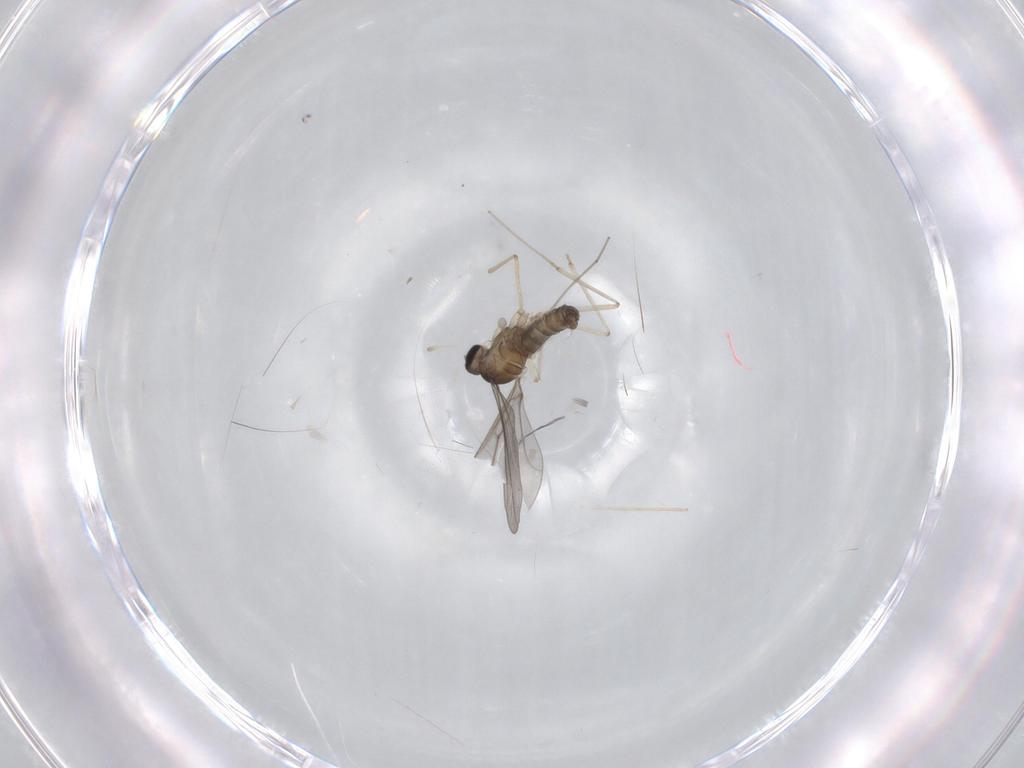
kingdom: Animalia
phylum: Arthropoda
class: Insecta
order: Diptera
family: Cecidomyiidae
